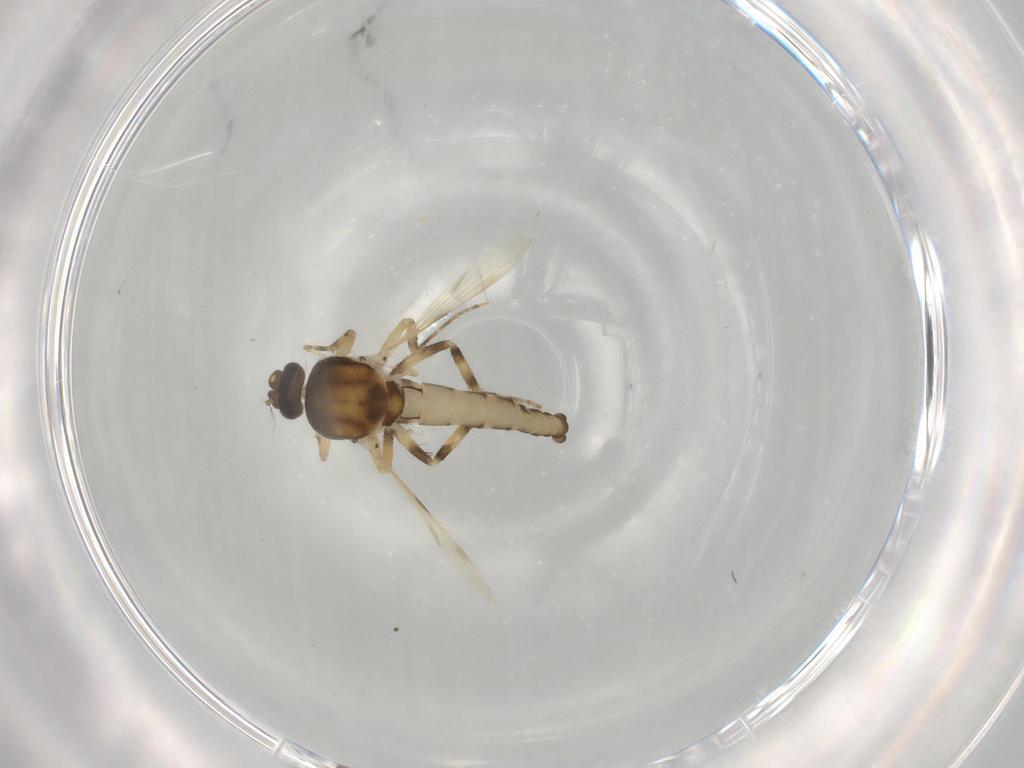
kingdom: Animalia
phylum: Arthropoda
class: Insecta
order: Diptera
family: Ceratopogonidae
